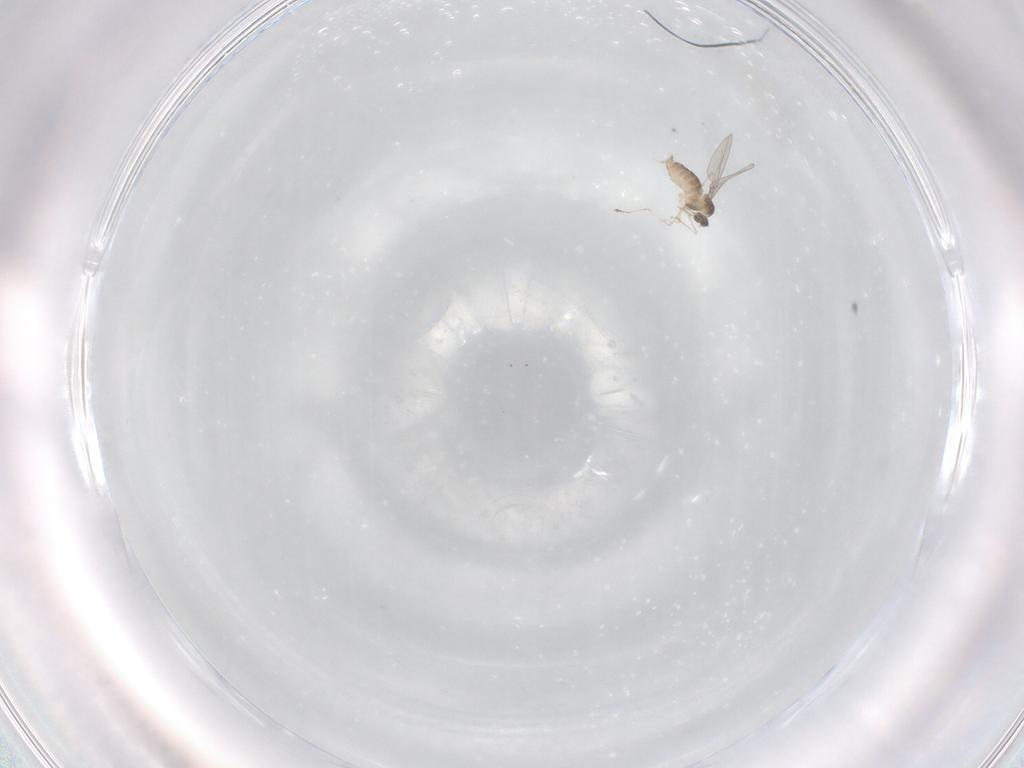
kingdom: Animalia
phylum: Arthropoda
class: Insecta
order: Diptera
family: Cecidomyiidae
